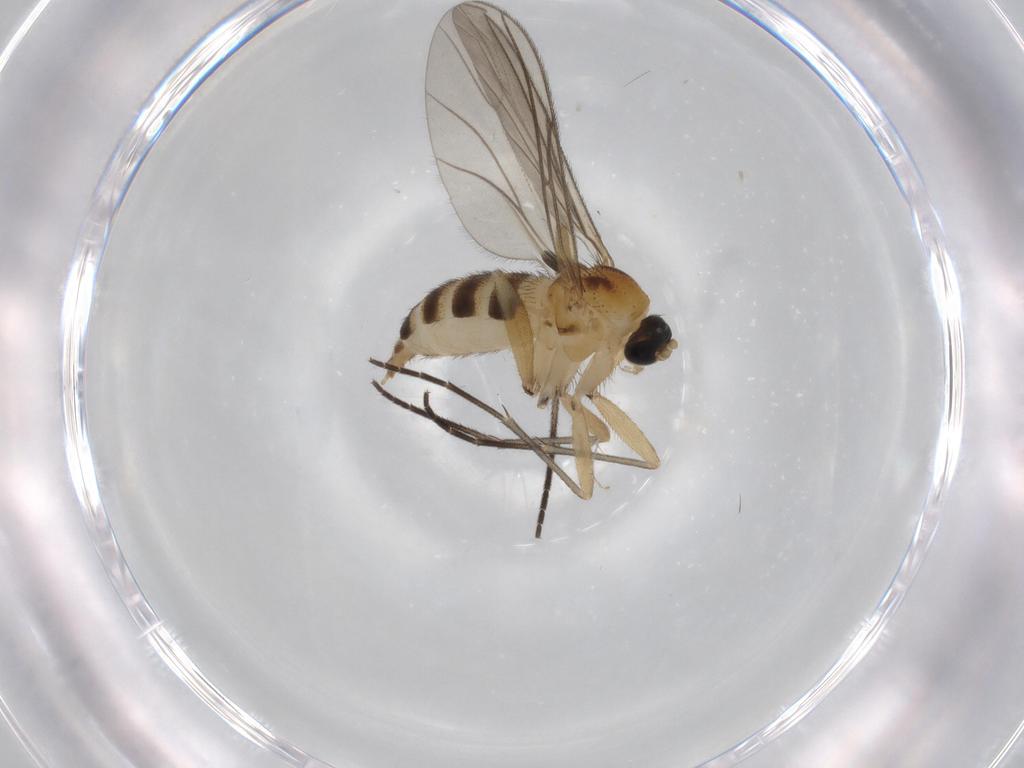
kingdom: Animalia
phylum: Arthropoda
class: Insecta
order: Diptera
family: Sciaridae
